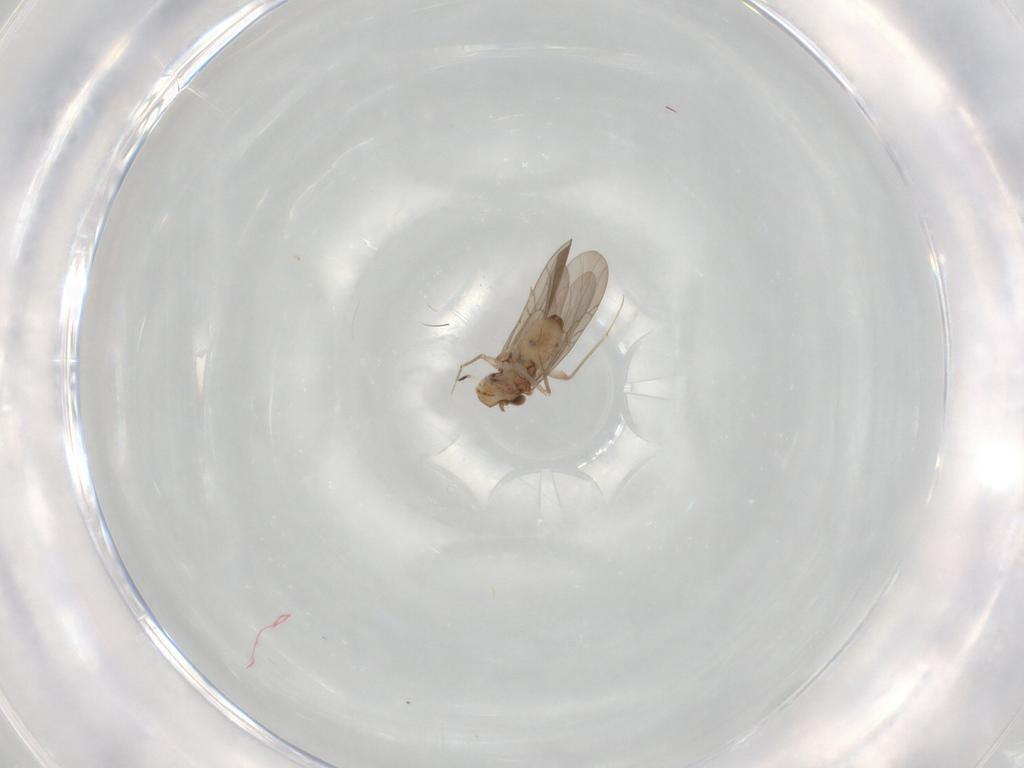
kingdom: Animalia
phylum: Arthropoda
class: Insecta
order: Psocodea
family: Lepidopsocidae
